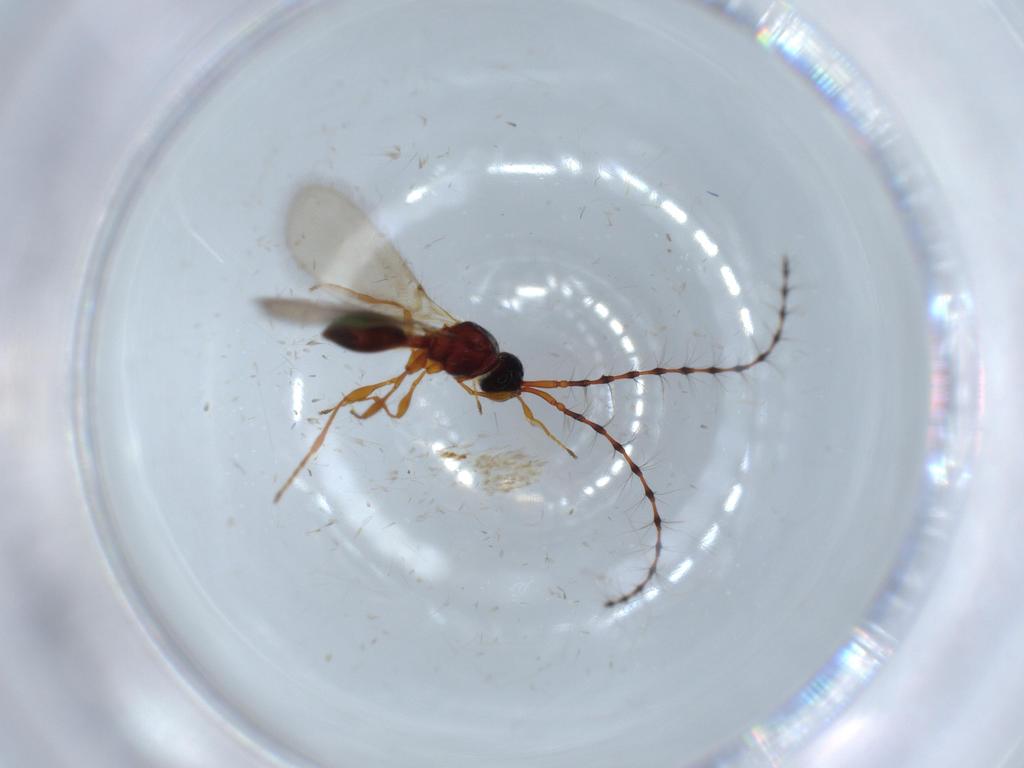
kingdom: Animalia
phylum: Arthropoda
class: Insecta
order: Hymenoptera
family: Diapriidae
